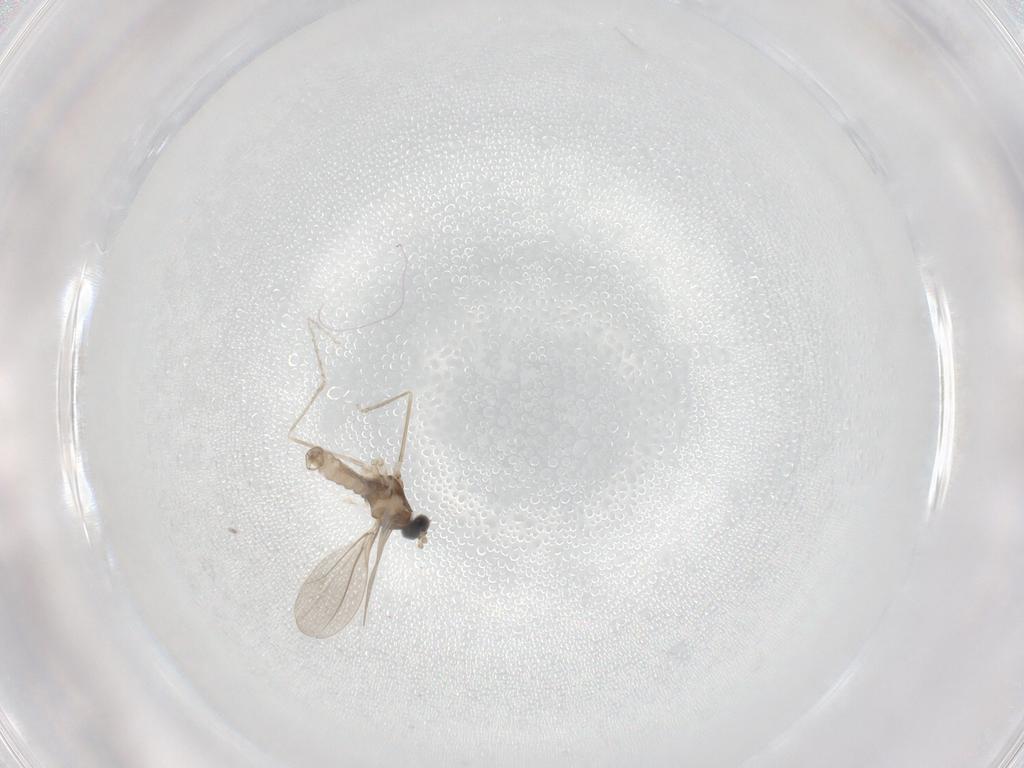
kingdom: Animalia
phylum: Arthropoda
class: Insecta
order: Diptera
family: Cecidomyiidae
